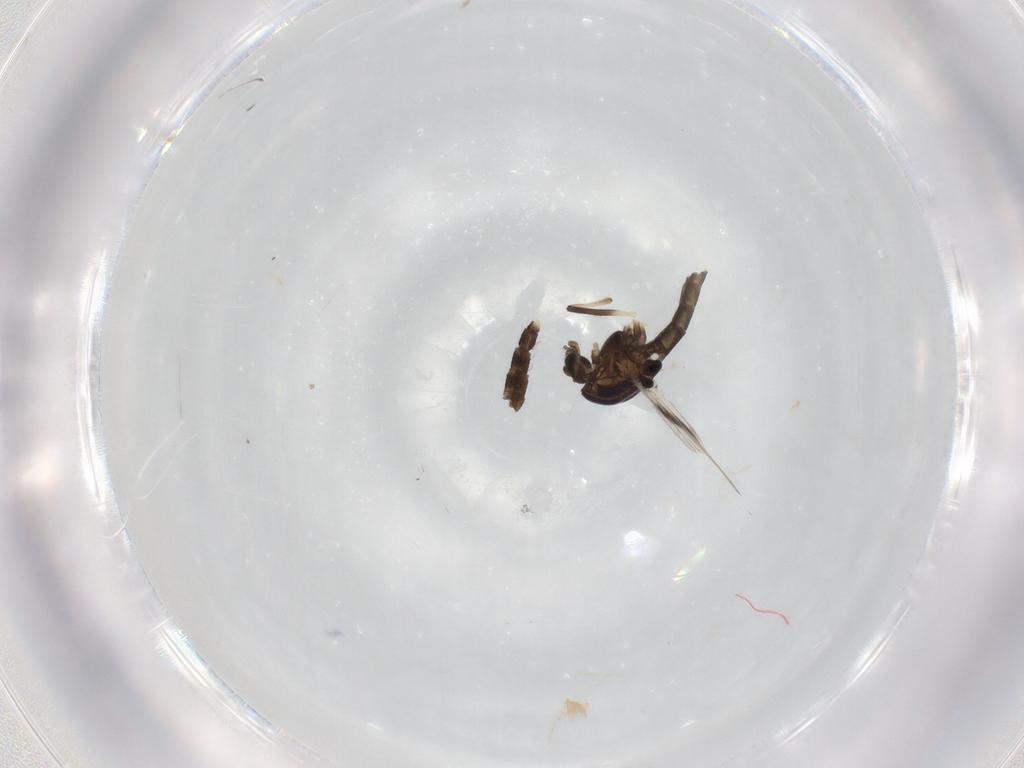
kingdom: Animalia
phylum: Arthropoda
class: Insecta
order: Diptera
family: Chironomidae
